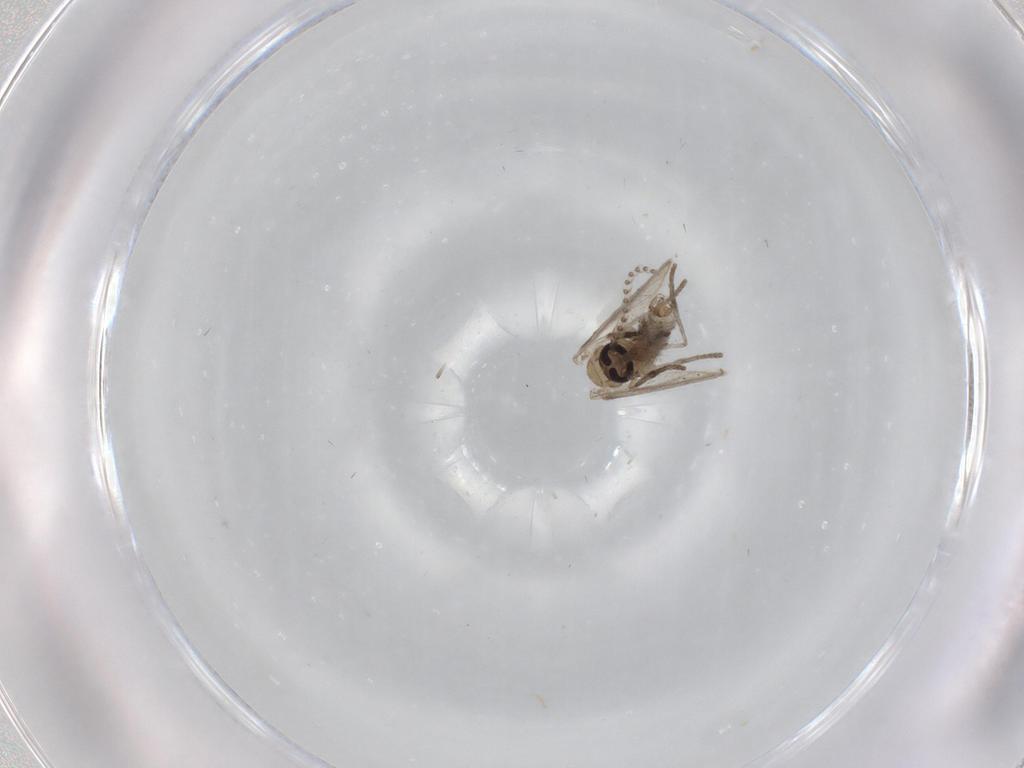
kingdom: Animalia
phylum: Arthropoda
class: Insecta
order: Diptera
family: Psychodidae
